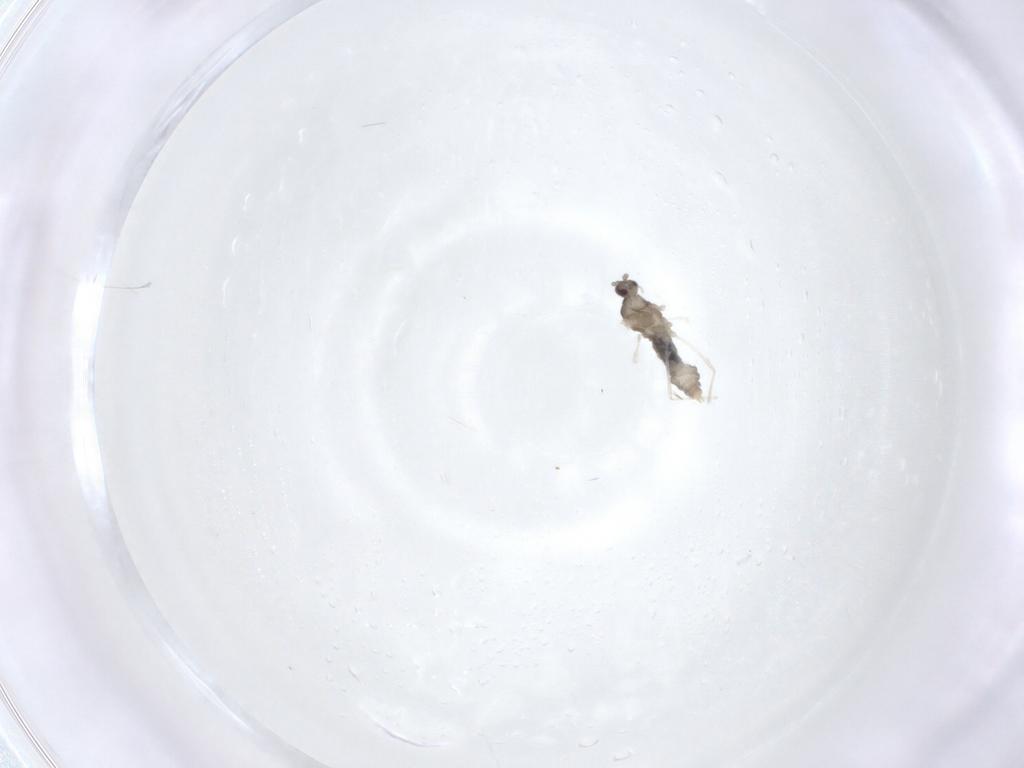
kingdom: Animalia
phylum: Arthropoda
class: Insecta
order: Diptera
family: Cecidomyiidae
